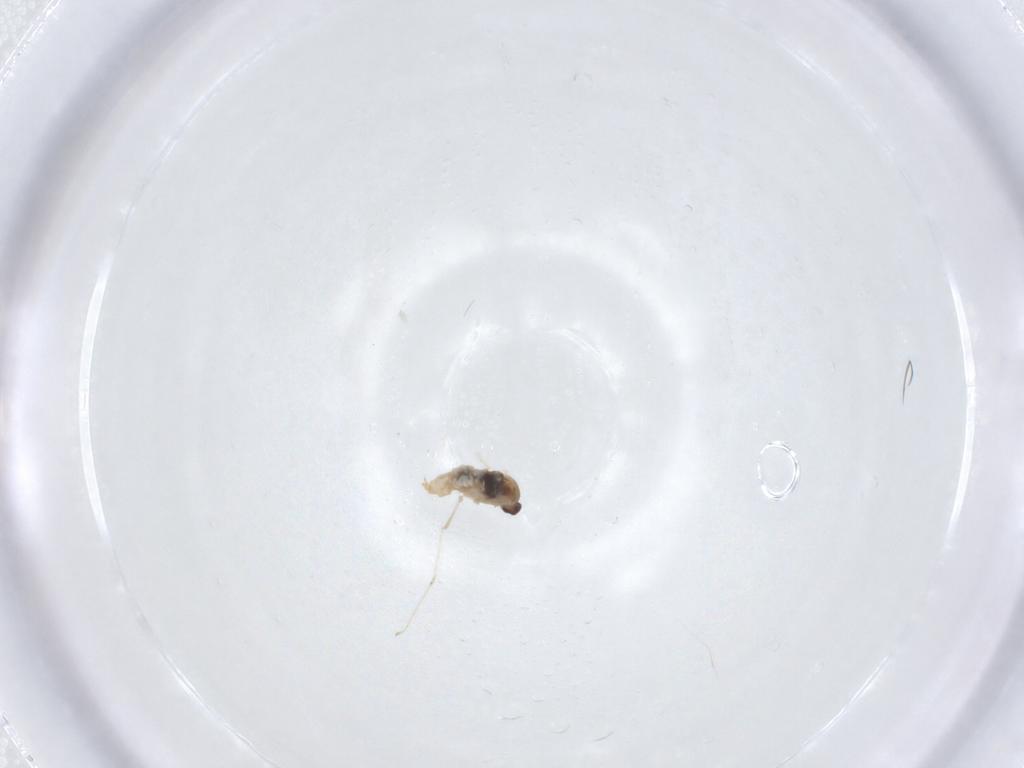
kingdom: Animalia
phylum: Arthropoda
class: Insecta
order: Diptera
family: Cecidomyiidae
